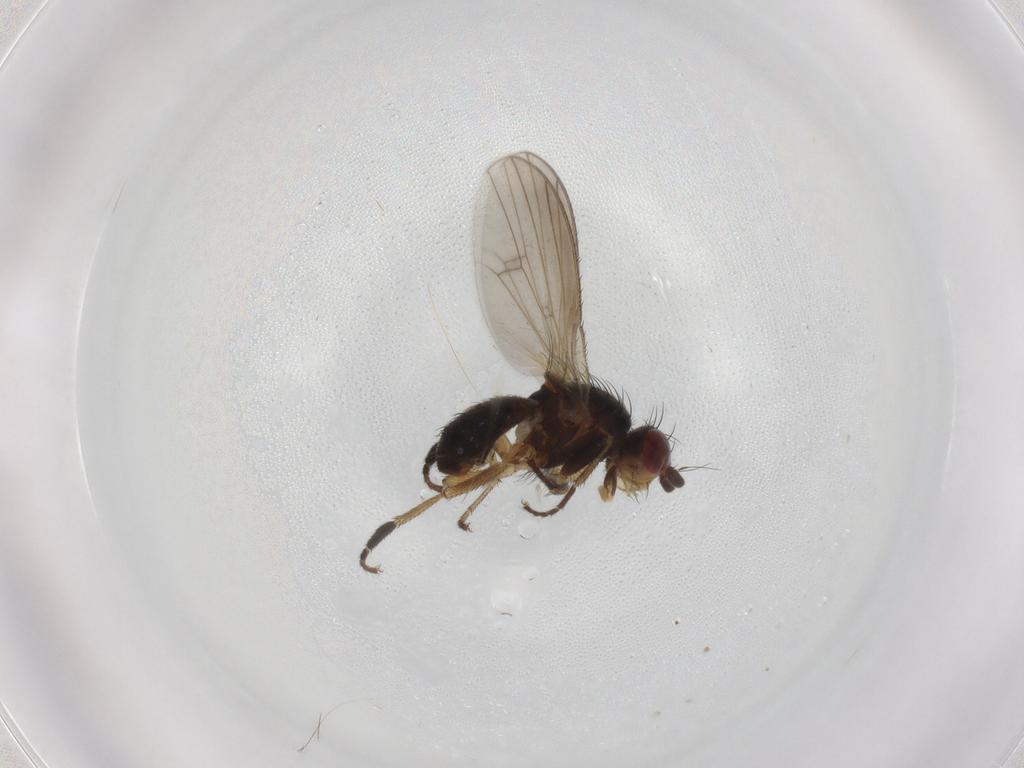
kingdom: Animalia
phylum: Arthropoda
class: Insecta
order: Diptera
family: Heleomyzidae
